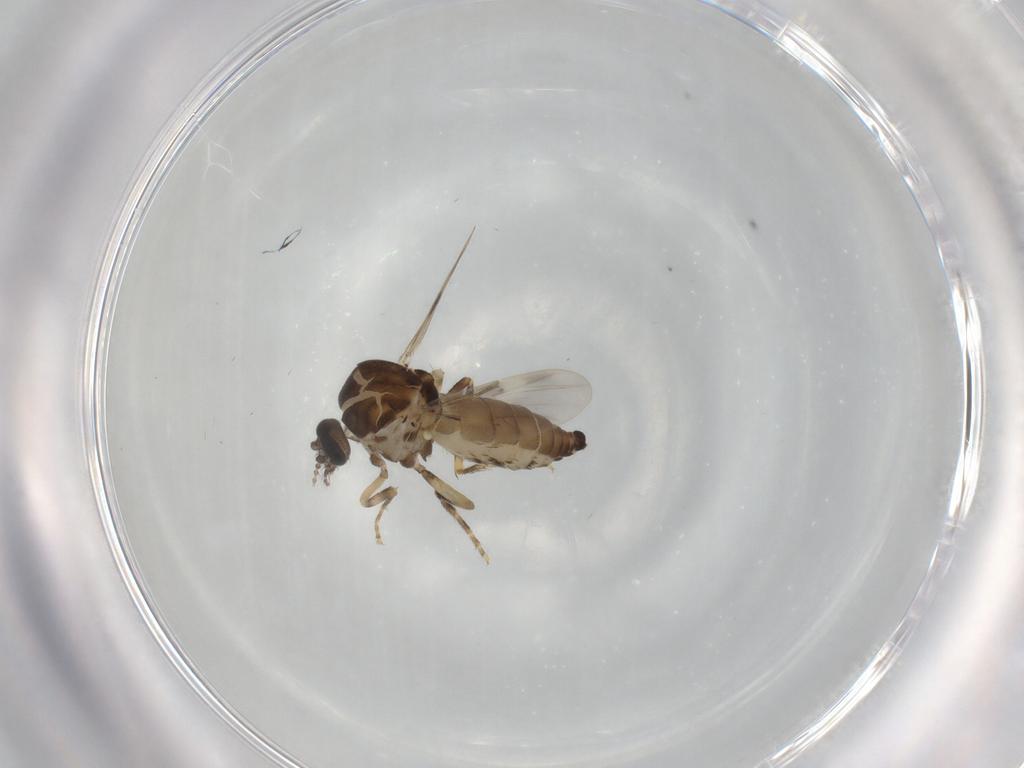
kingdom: Animalia
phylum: Arthropoda
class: Insecta
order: Diptera
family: Ceratopogonidae
